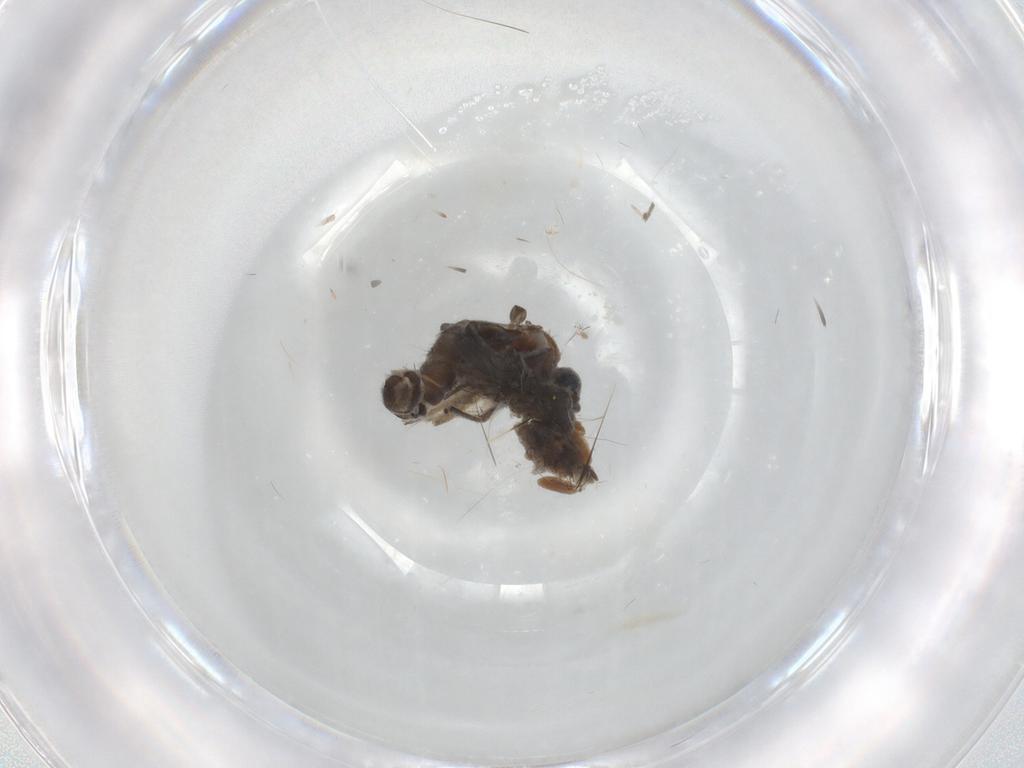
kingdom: Animalia
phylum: Arthropoda
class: Insecta
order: Diptera
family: Sciaridae
